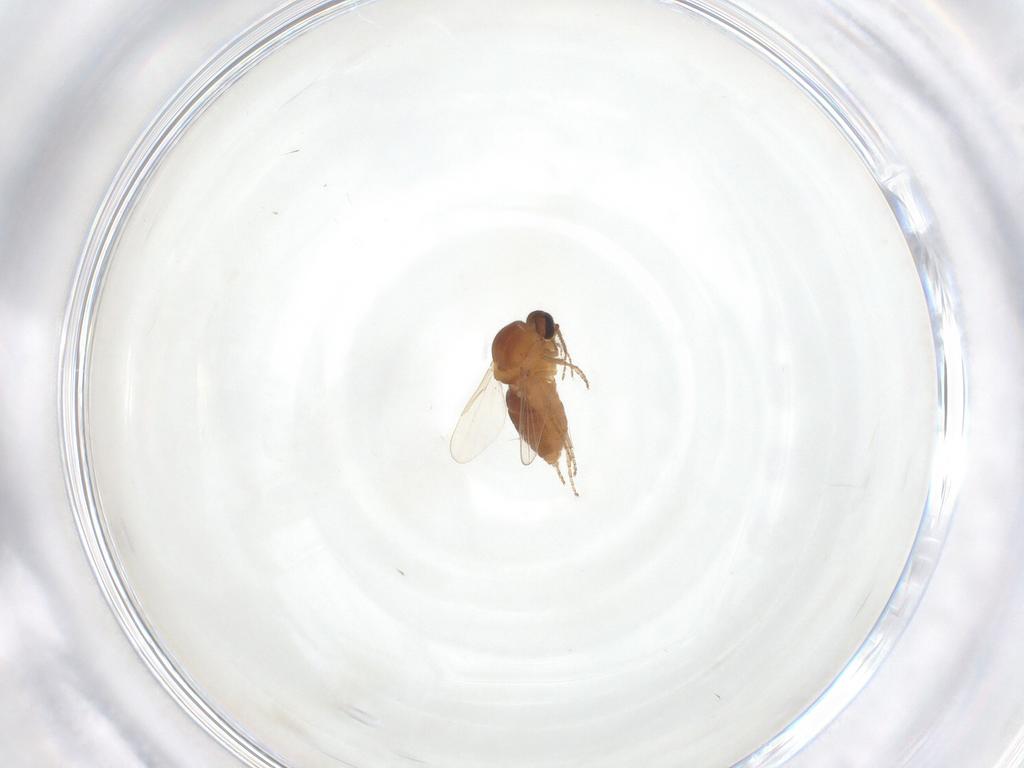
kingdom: Animalia
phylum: Arthropoda
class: Insecta
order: Diptera
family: Ceratopogonidae
